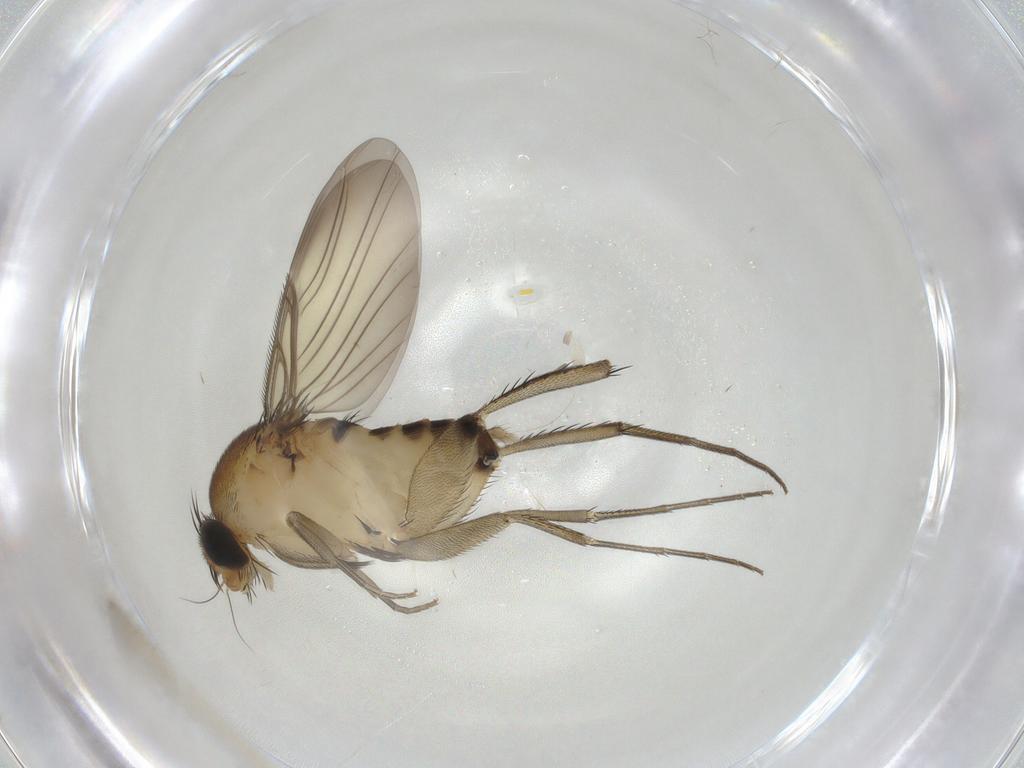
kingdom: Animalia
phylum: Arthropoda
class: Insecta
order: Diptera
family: Phoridae
